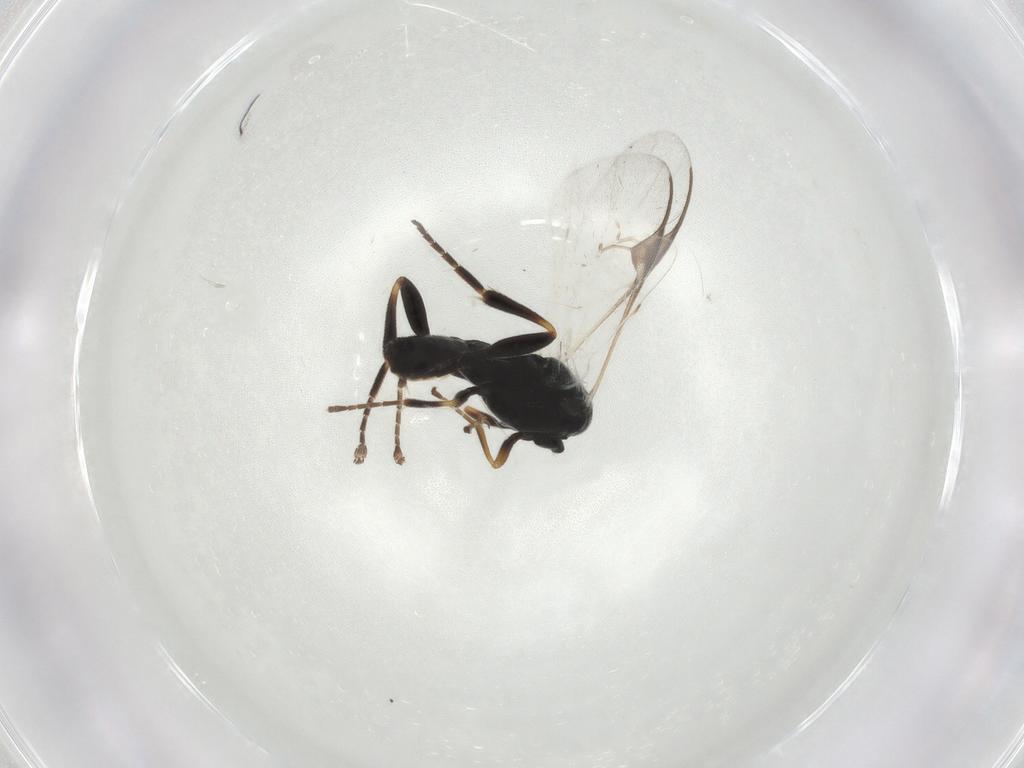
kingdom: Animalia
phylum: Arthropoda
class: Insecta
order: Hymenoptera
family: Braconidae
